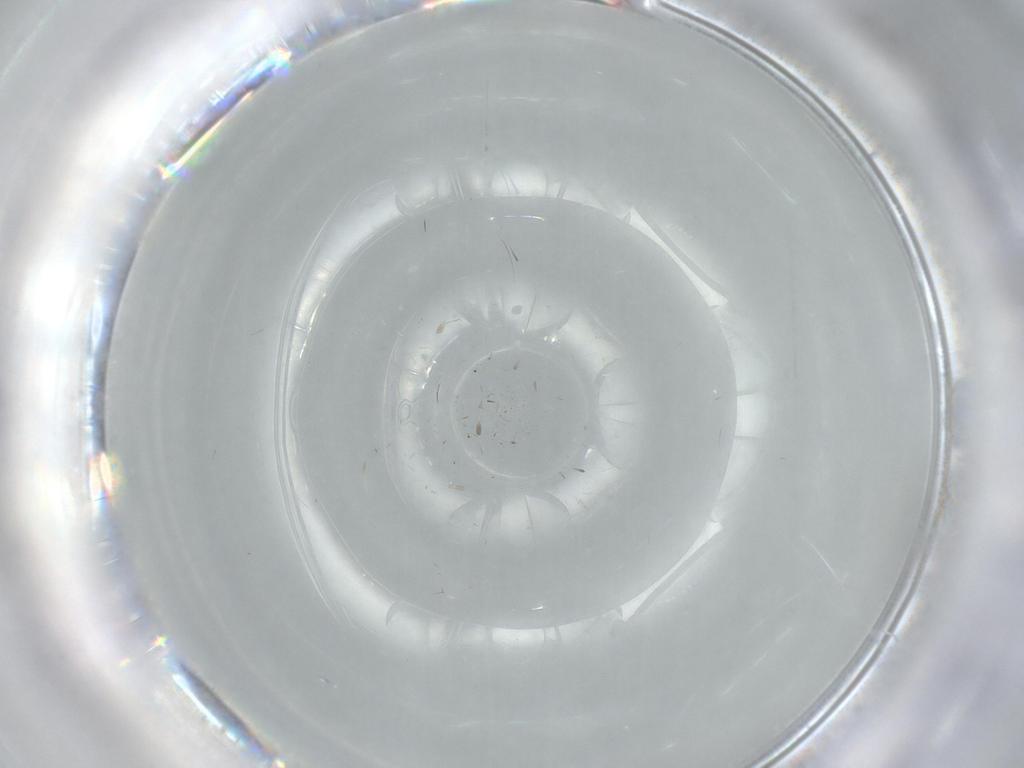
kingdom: Animalia
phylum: Arthropoda
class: Insecta
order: Diptera
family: Chironomidae
